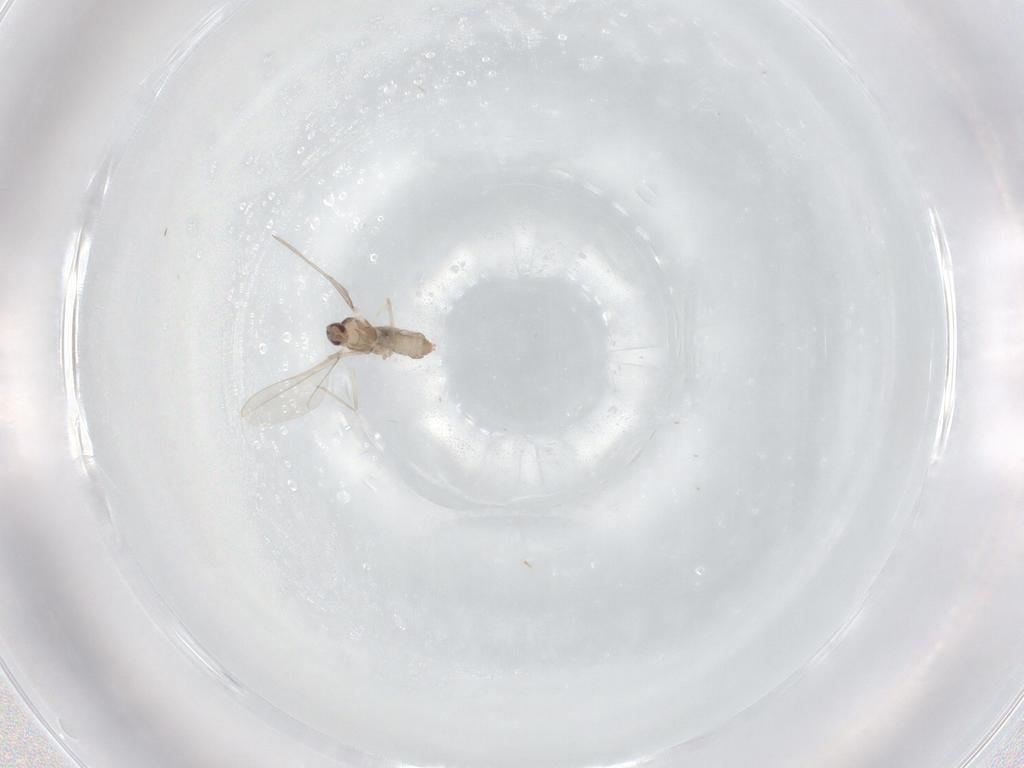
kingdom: Animalia
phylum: Arthropoda
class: Insecta
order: Diptera
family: Cecidomyiidae
